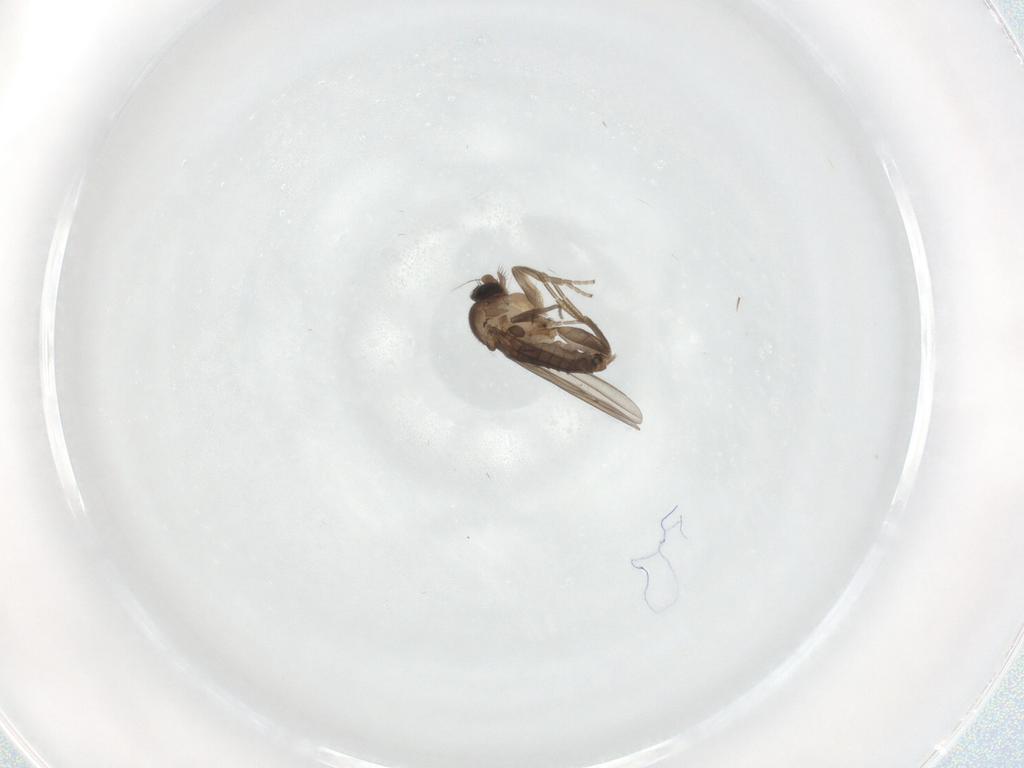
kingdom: Animalia
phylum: Arthropoda
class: Insecta
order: Diptera
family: Phoridae
